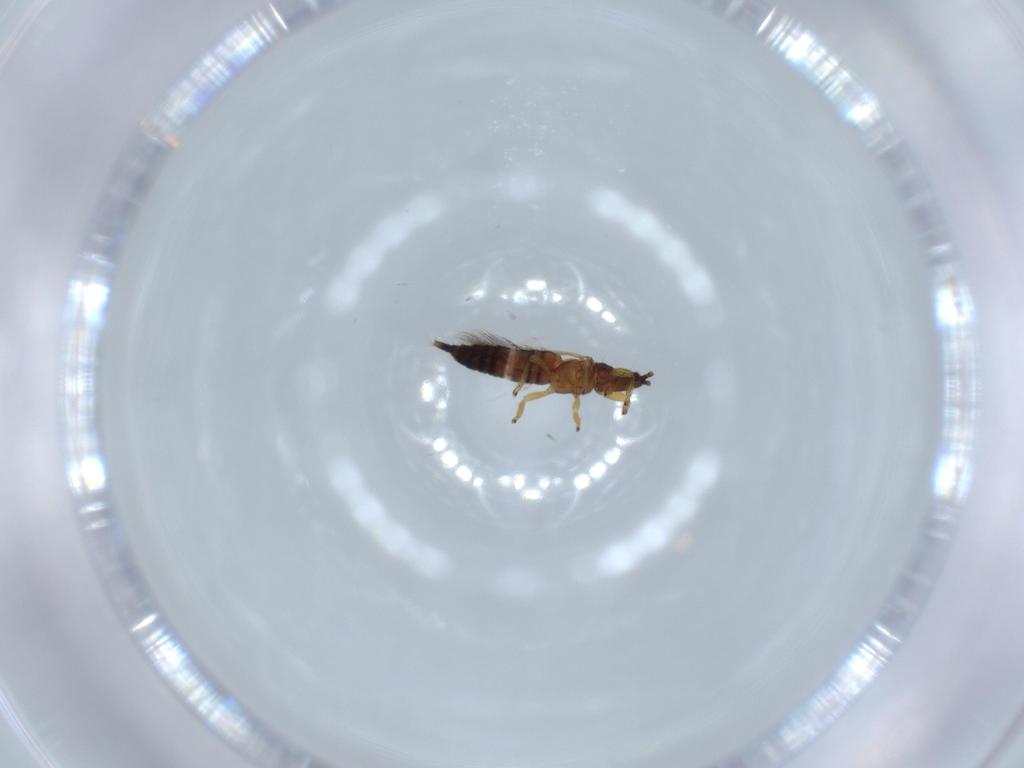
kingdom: Animalia
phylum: Arthropoda
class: Insecta
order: Thysanoptera
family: Phlaeothripidae
